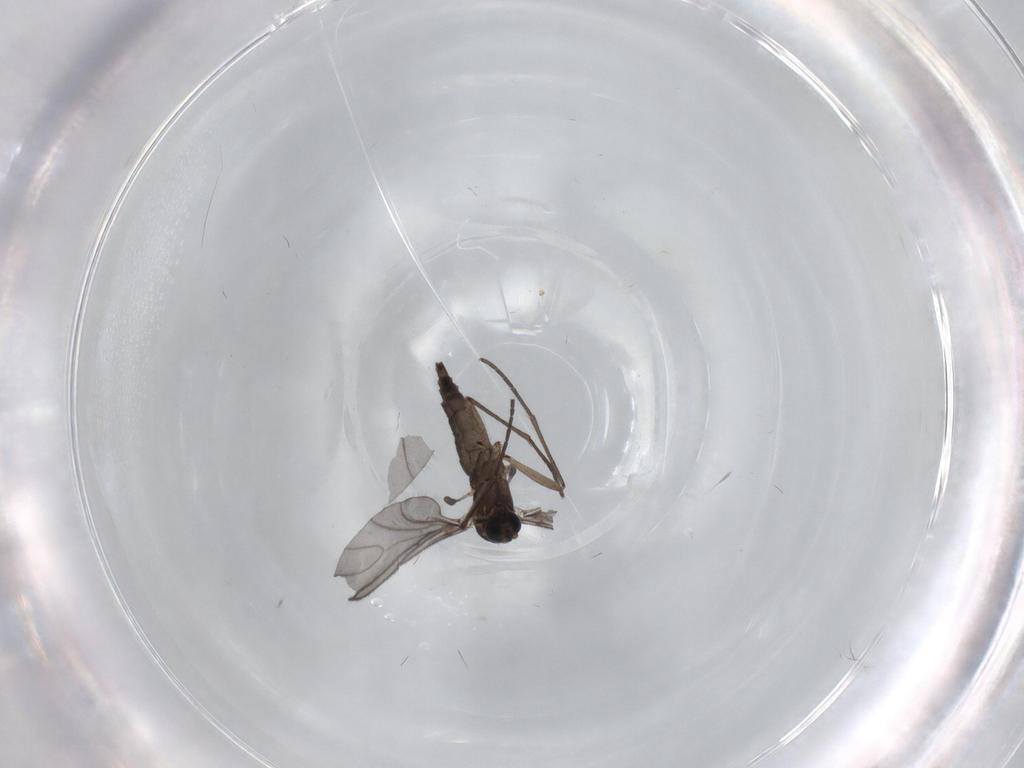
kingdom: Animalia
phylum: Arthropoda
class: Insecta
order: Diptera
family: Sciaridae
